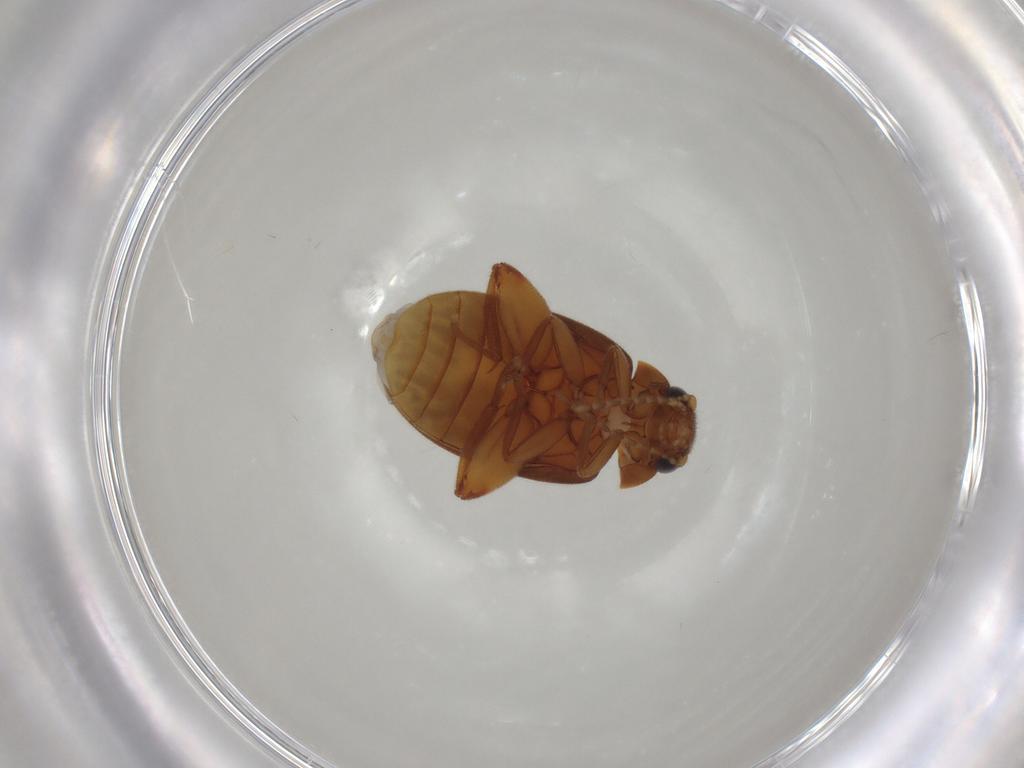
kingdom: Animalia
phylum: Arthropoda
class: Insecta
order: Coleoptera
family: Scirtidae
